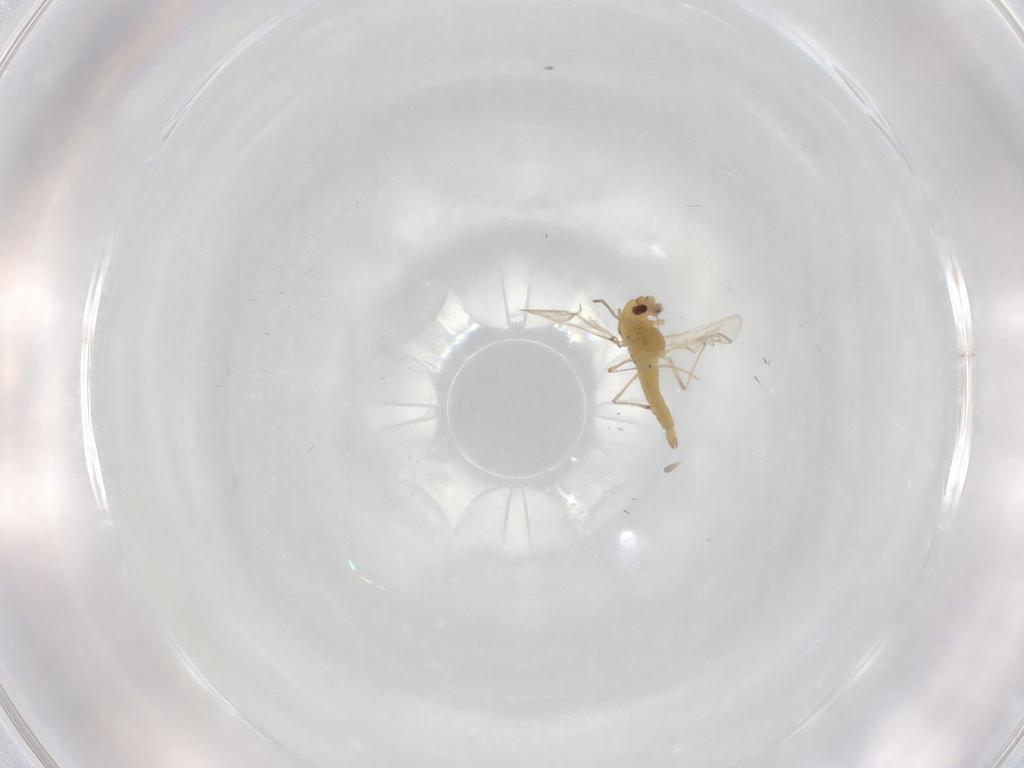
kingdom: Animalia
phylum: Arthropoda
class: Insecta
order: Diptera
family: Keroplatidae
